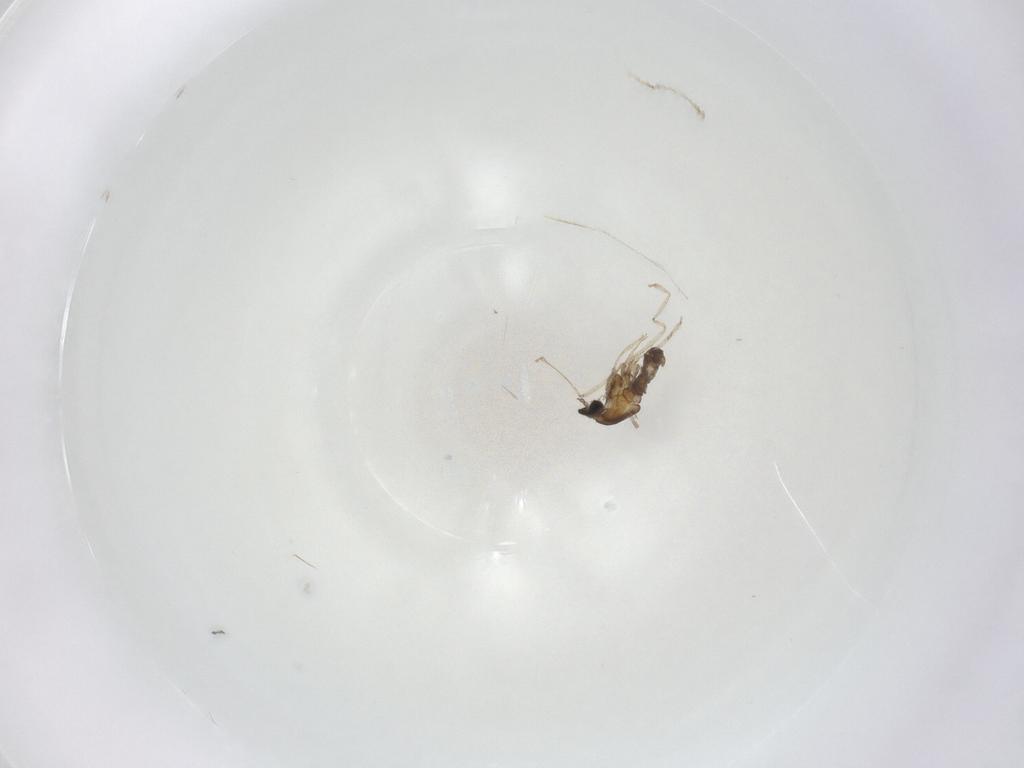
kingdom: Animalia
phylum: Arthropoda
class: Insecta
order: Diptera
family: Cecidomyiidae
